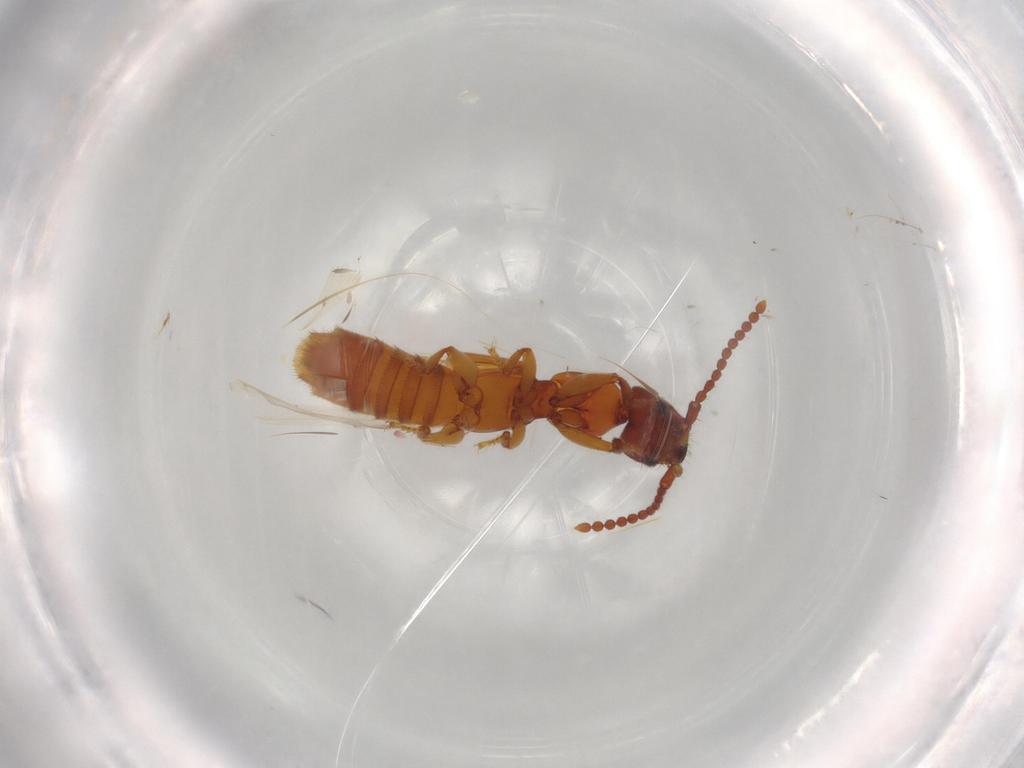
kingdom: Animalia
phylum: Arthropoda
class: Insecta
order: Coleoptera
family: Staphylinidae
